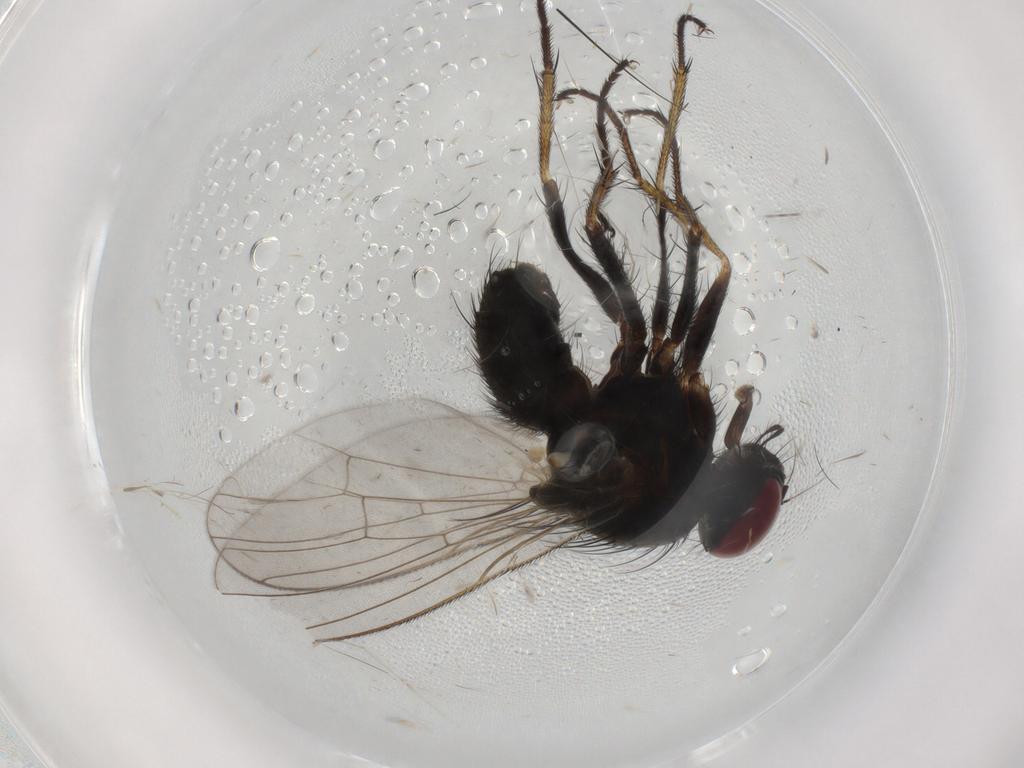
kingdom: Animalia
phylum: Arthropoda
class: Insecta
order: Diptera
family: Muscidae
